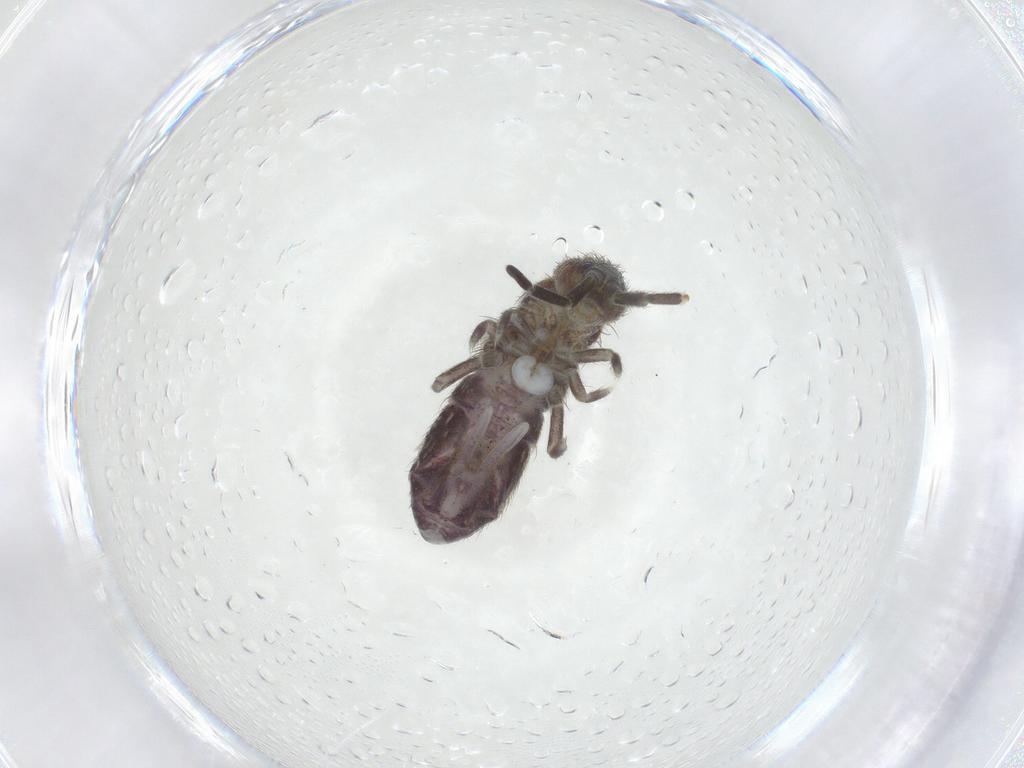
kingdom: Animalia
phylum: Arthropoda
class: Collembola
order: Entomobryomorpha
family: Isotomidae
